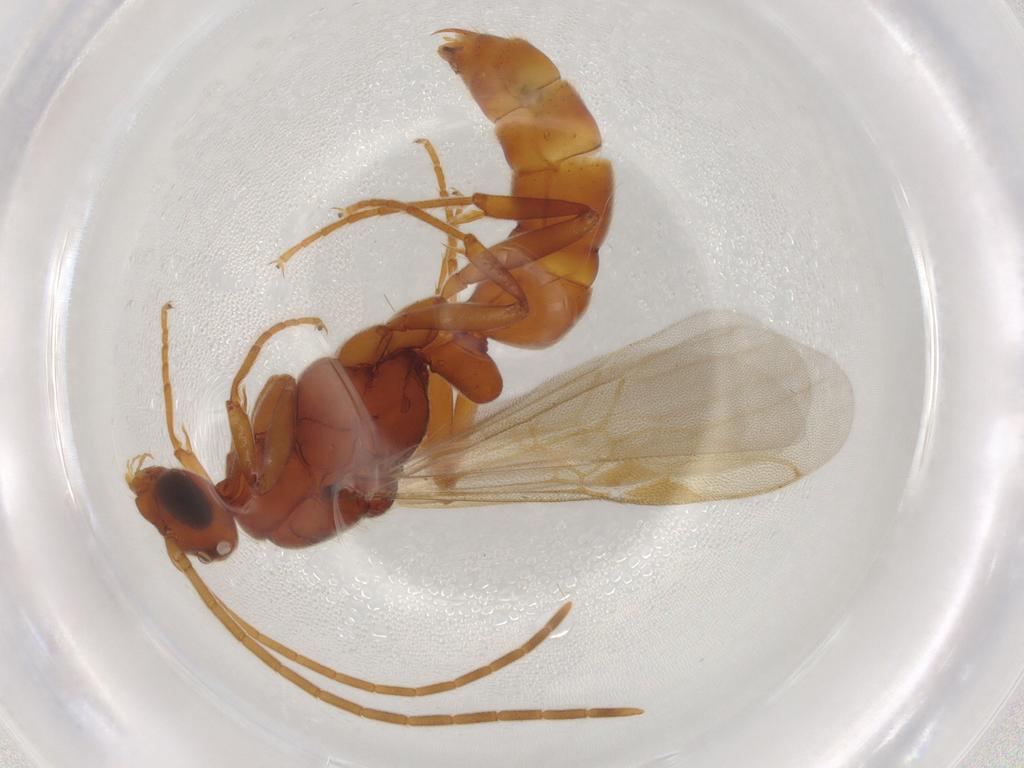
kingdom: Animalia
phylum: Arthropoda
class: Insecta
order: Hymenoptera
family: Formicidae
